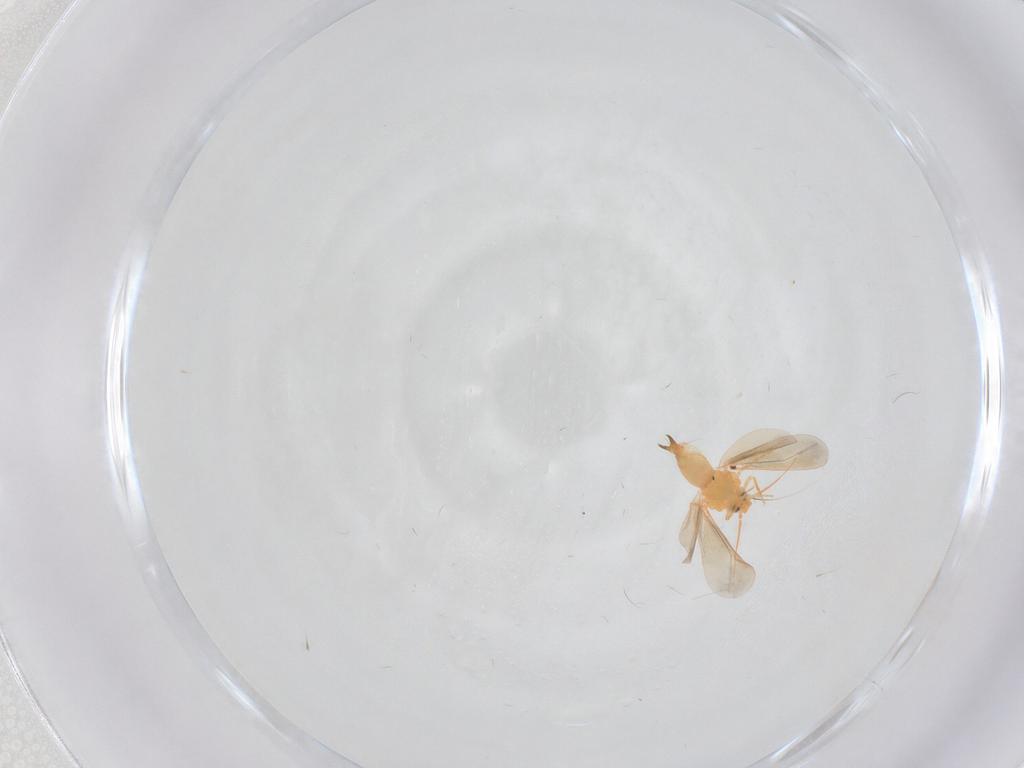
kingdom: Animalia
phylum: Arthropoda
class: Insecta
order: Hemiptera
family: Aleyrodidae
